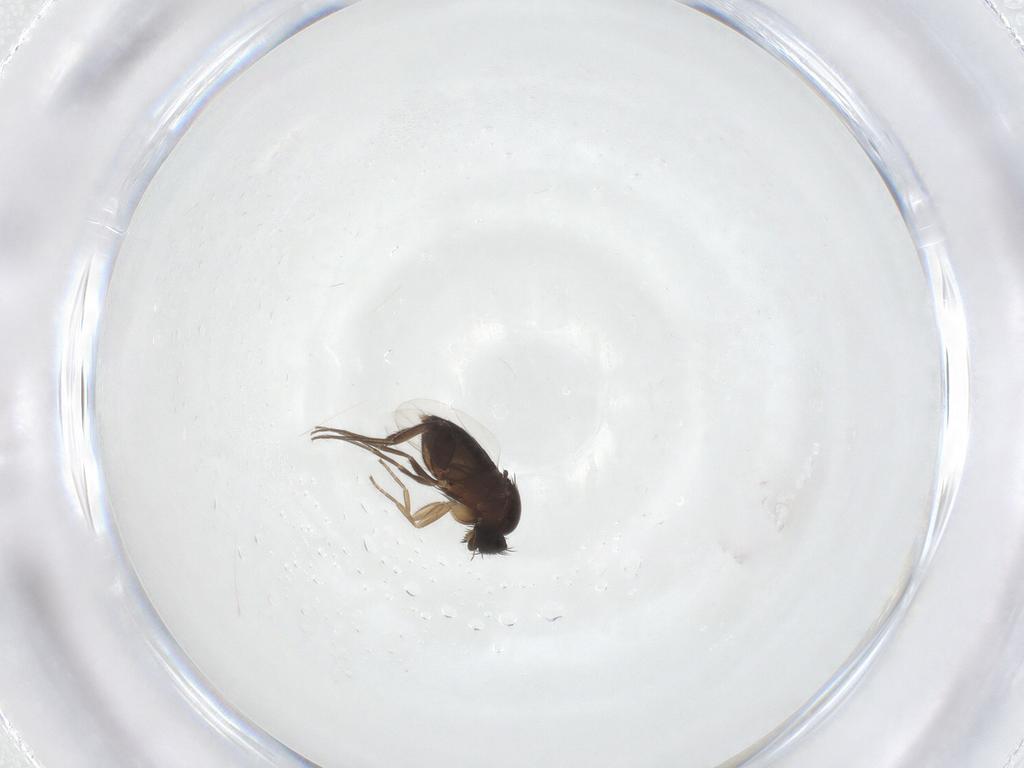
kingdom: Animalia
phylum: Arthropoda
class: Insecta
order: Diptera
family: Phoridae
